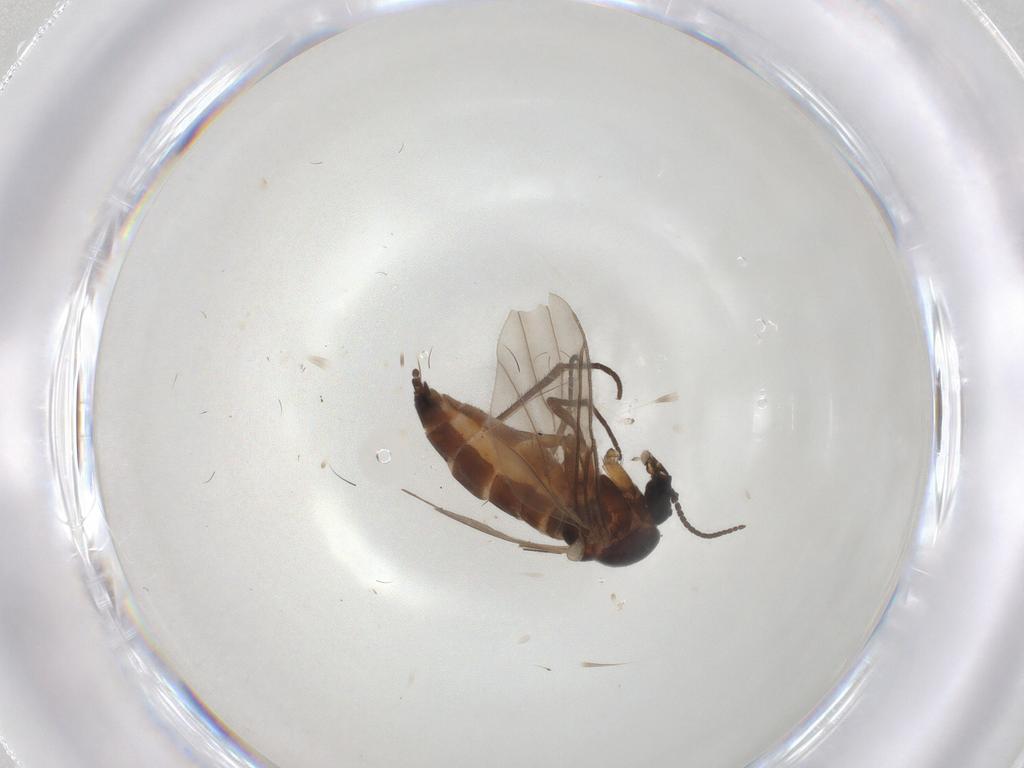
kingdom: Animalia
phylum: Arthropoda
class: Insecta
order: Diptera
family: Sciaridae
